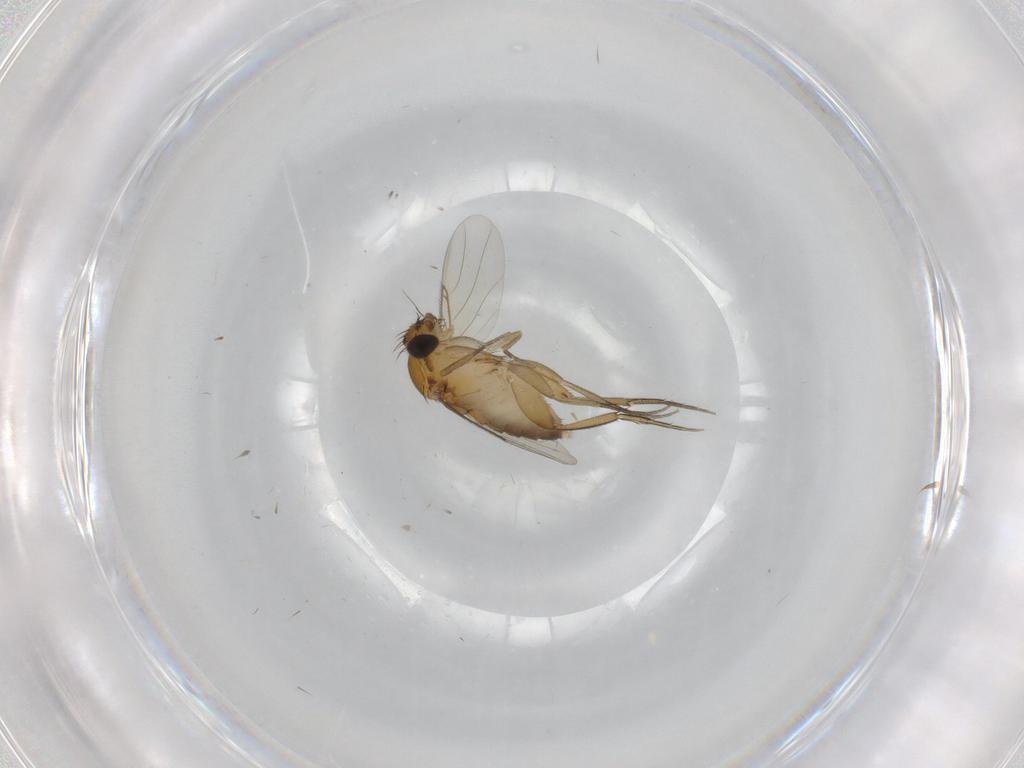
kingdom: Animalia
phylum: Arthropoda
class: Insecta
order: Diptera
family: Phoridae
